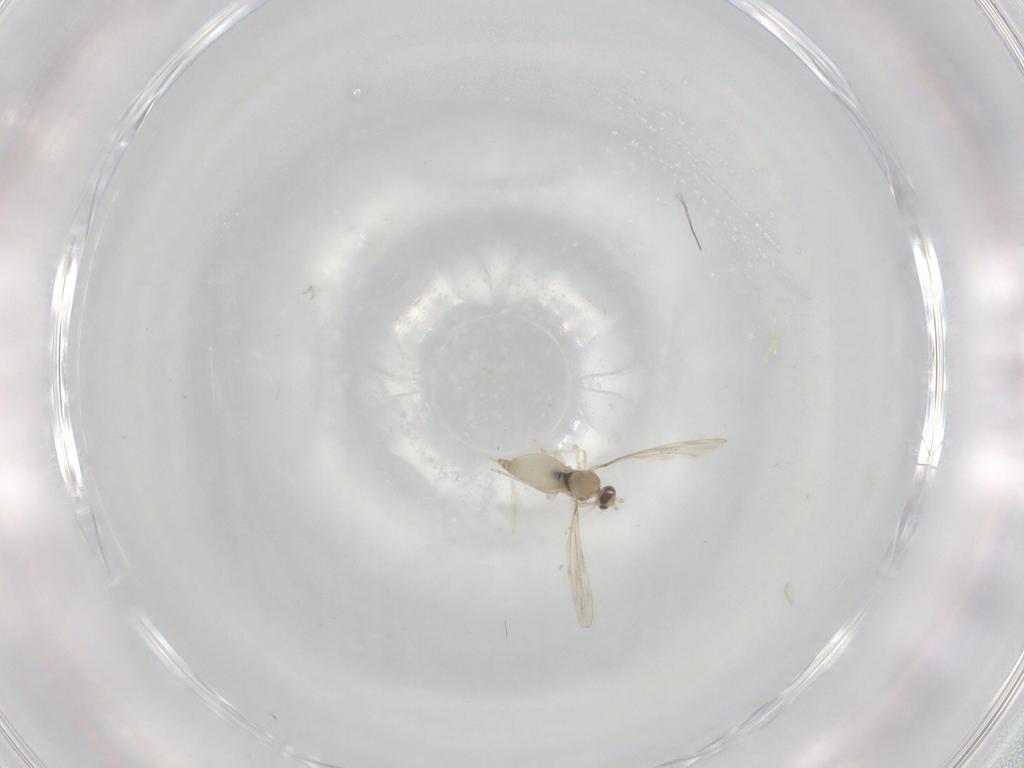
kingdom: Animalia
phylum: Arthropoda
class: Insecta
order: Diptera
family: Cecidomyiidae
